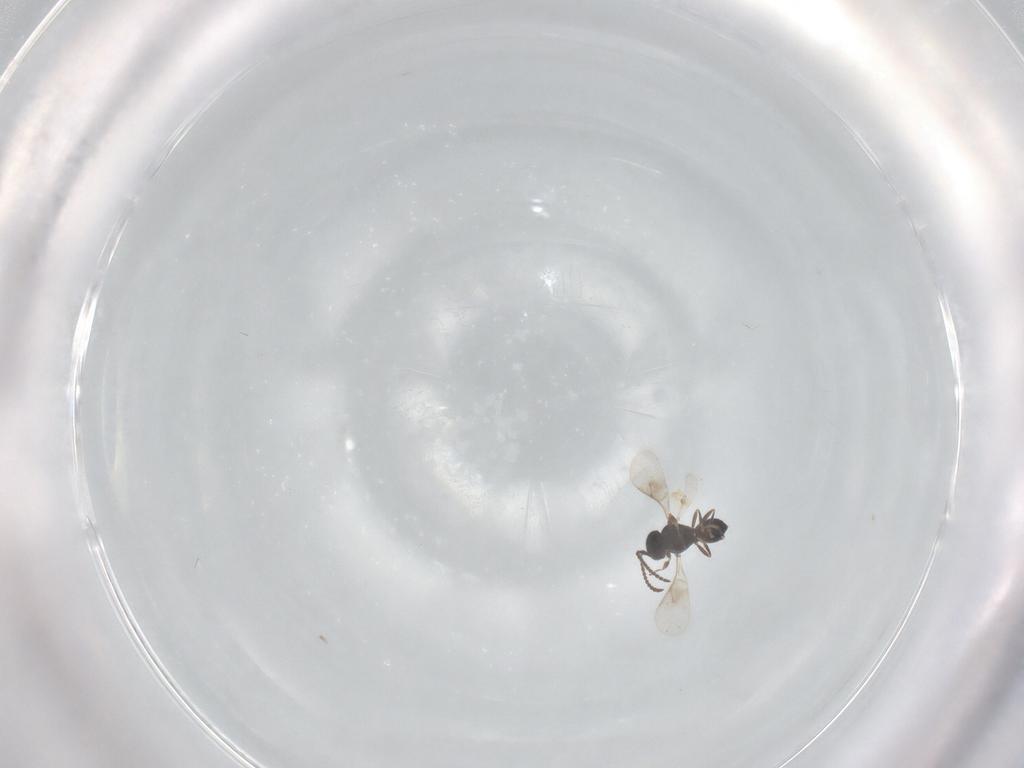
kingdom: Animalia
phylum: Arthropoda
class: Insecta
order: Hymenoptera
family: Scelionidae
